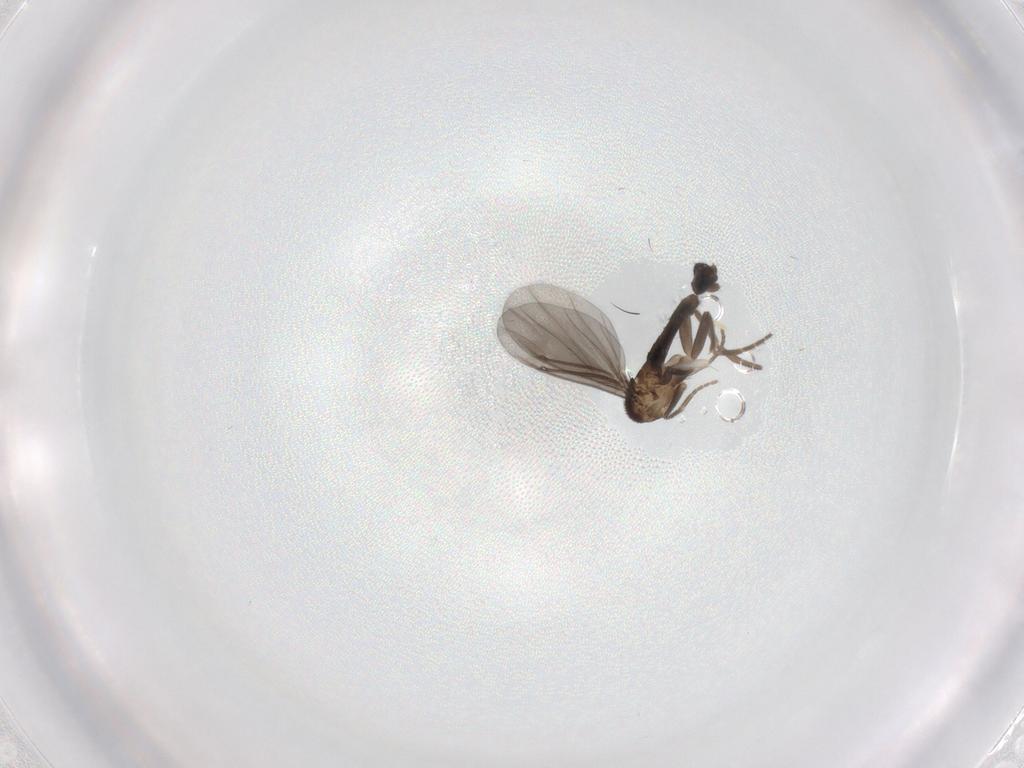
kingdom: Animalia
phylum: Arthropoda
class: Insecta
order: Diptera
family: Phoridae
